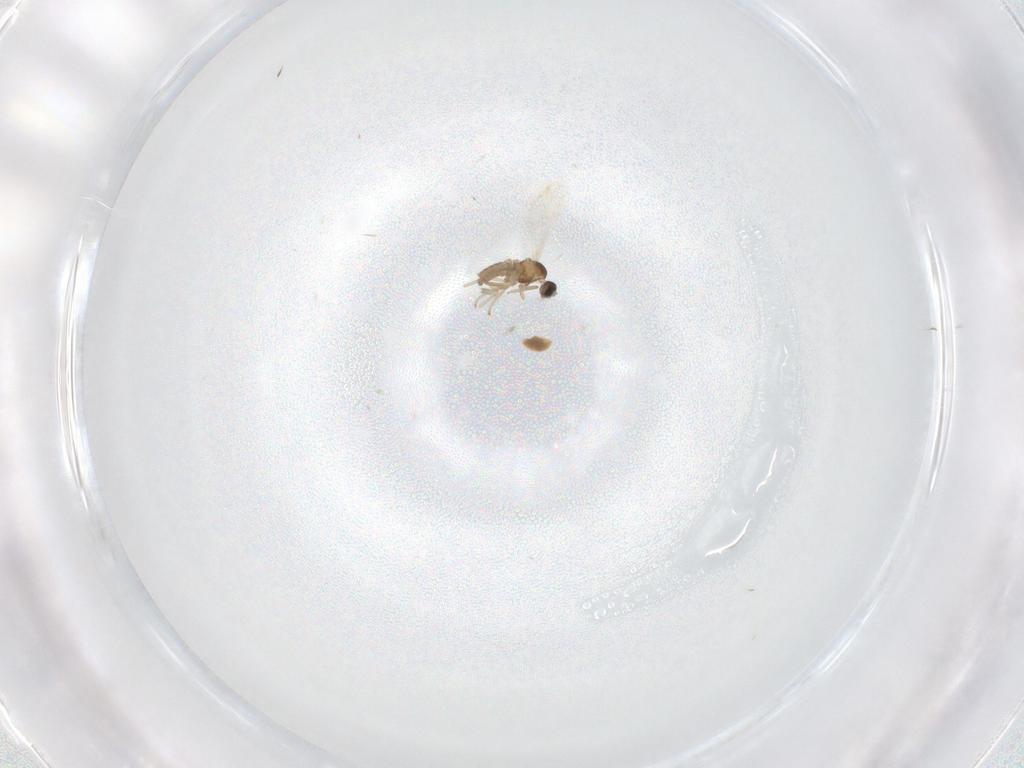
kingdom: Animalia
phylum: Arthropoda
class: Insecta
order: Diptera
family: Cecidomyiidae
